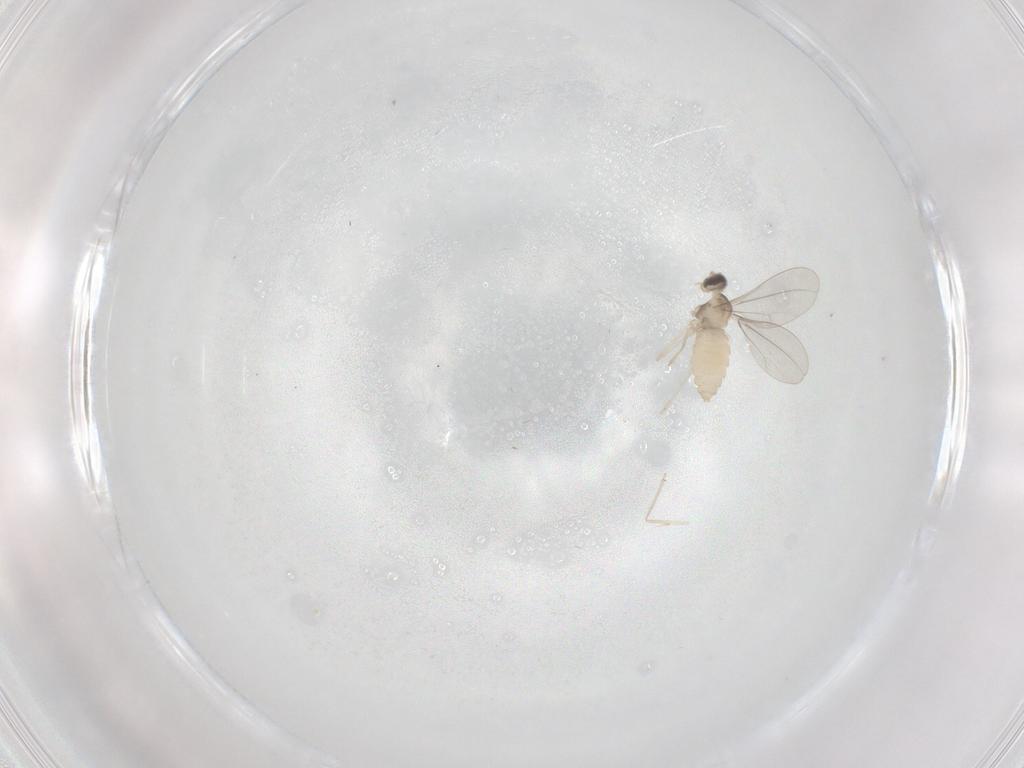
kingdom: Animalia
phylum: Arthropoda
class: Insecta
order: Diptera
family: Cecidomyiidae
